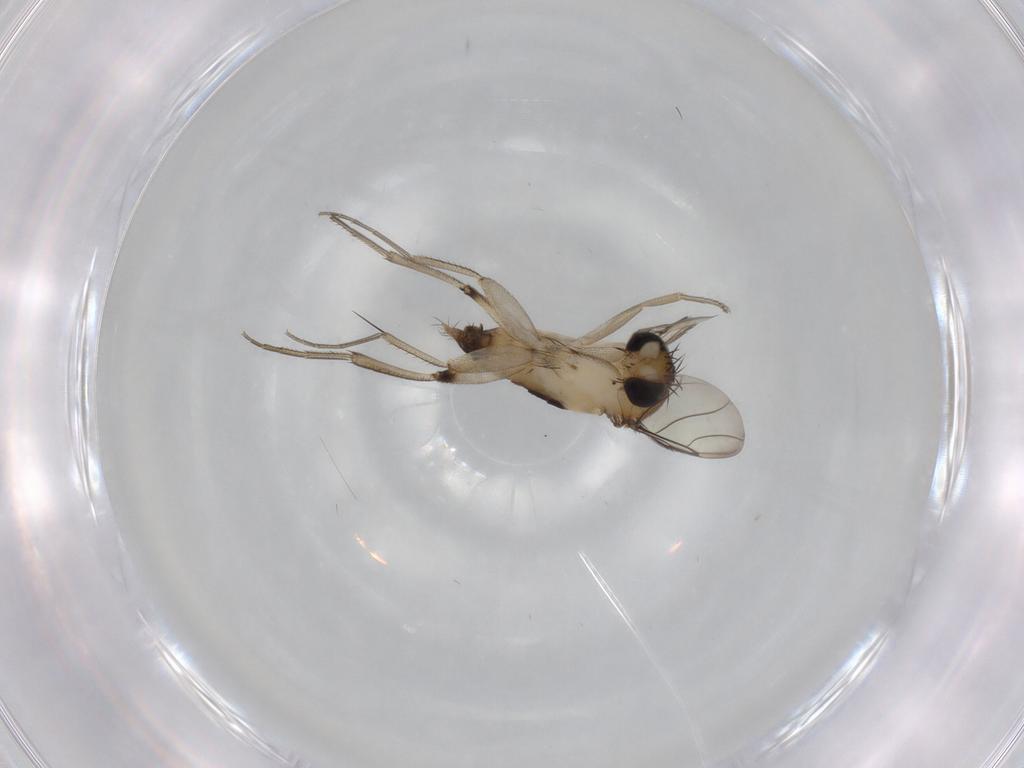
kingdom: Animalia
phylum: Arthropoda
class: Insecta
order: Diptera
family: Phoridae
